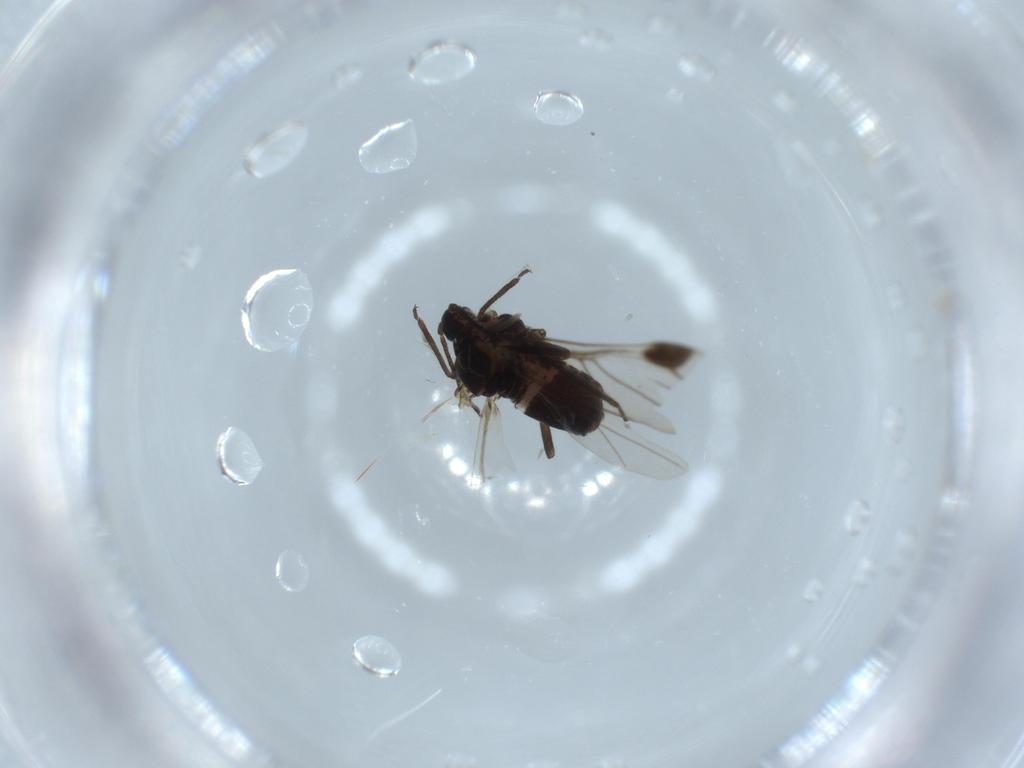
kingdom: Animalia
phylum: Arthropoda
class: Insecta
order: Hemiptera
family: Aphididae
